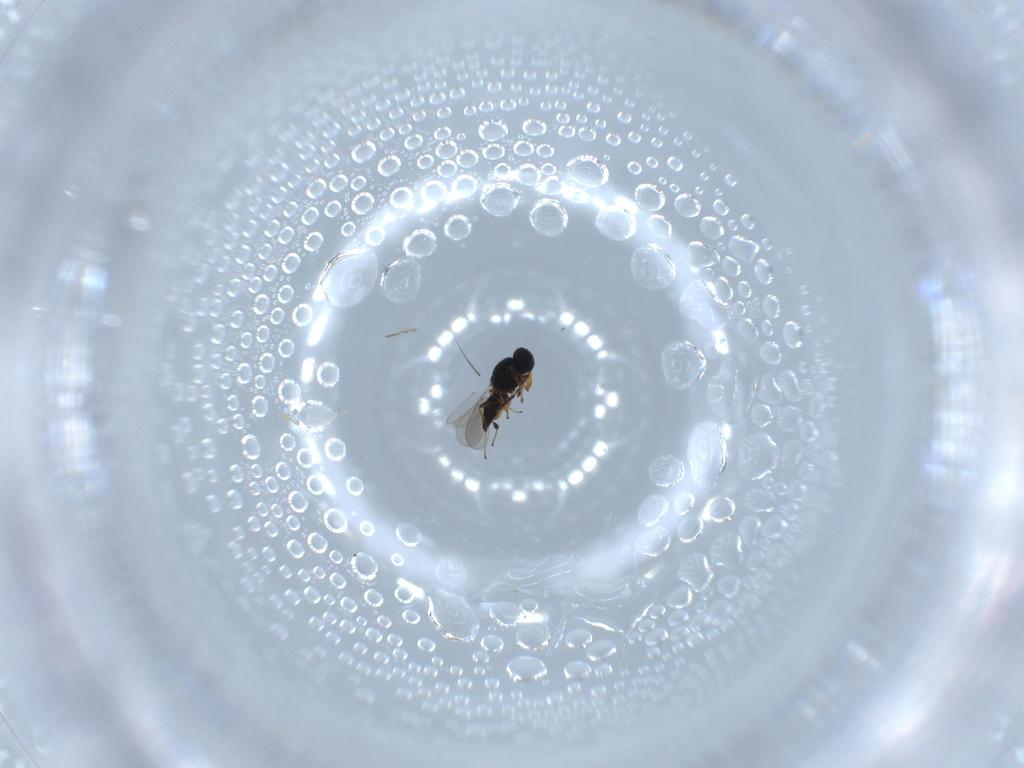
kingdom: Animalia
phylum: Arthropoda
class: Insecta
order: Hymenoptera
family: Platygastridae
